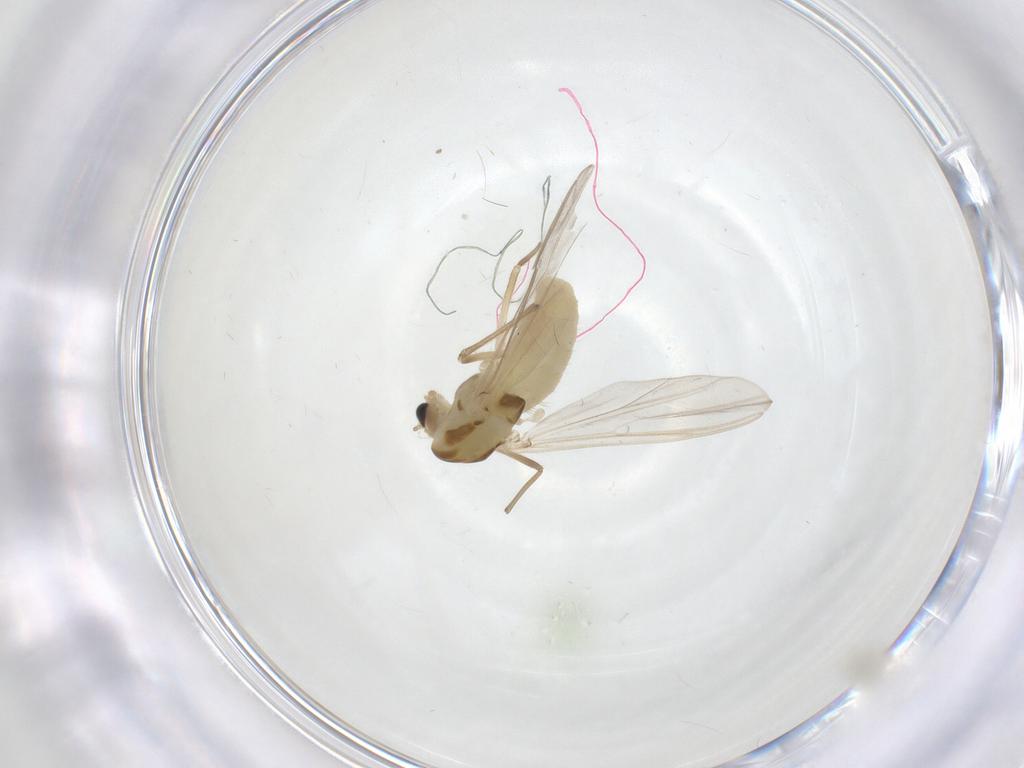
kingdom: Animalia
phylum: Arthropoda
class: Insecta
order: Diptera
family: Chironomidae
